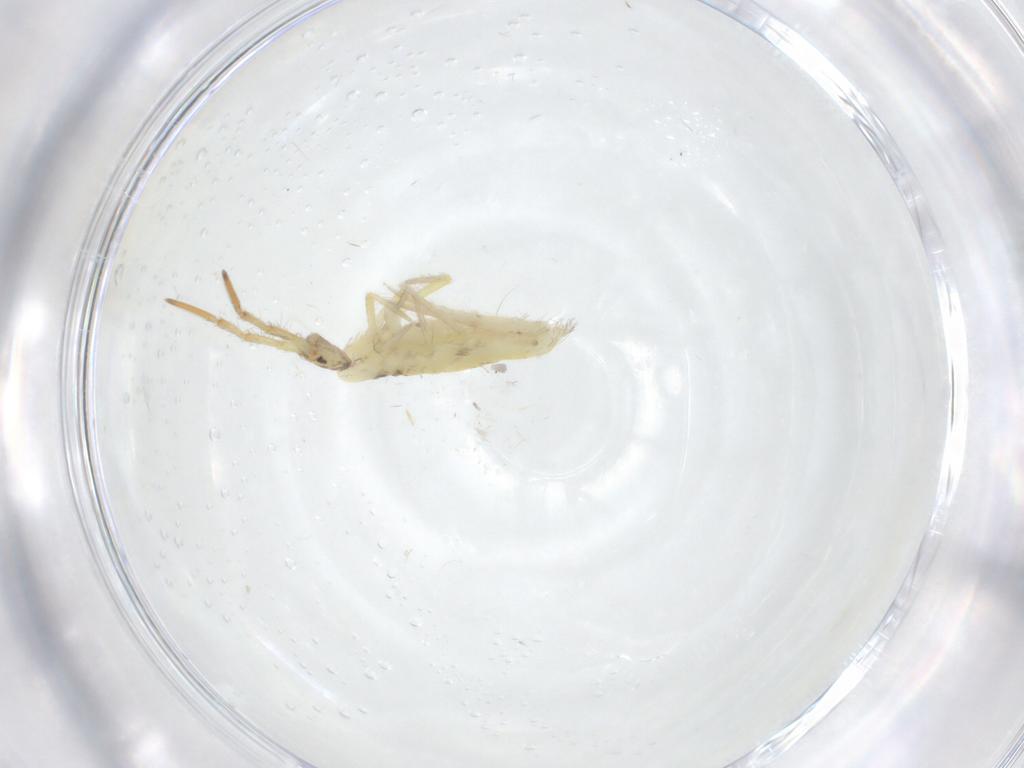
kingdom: Animalia
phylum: Arthropoda
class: Collembola
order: Entomobryomorpha
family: Entomobryidae
